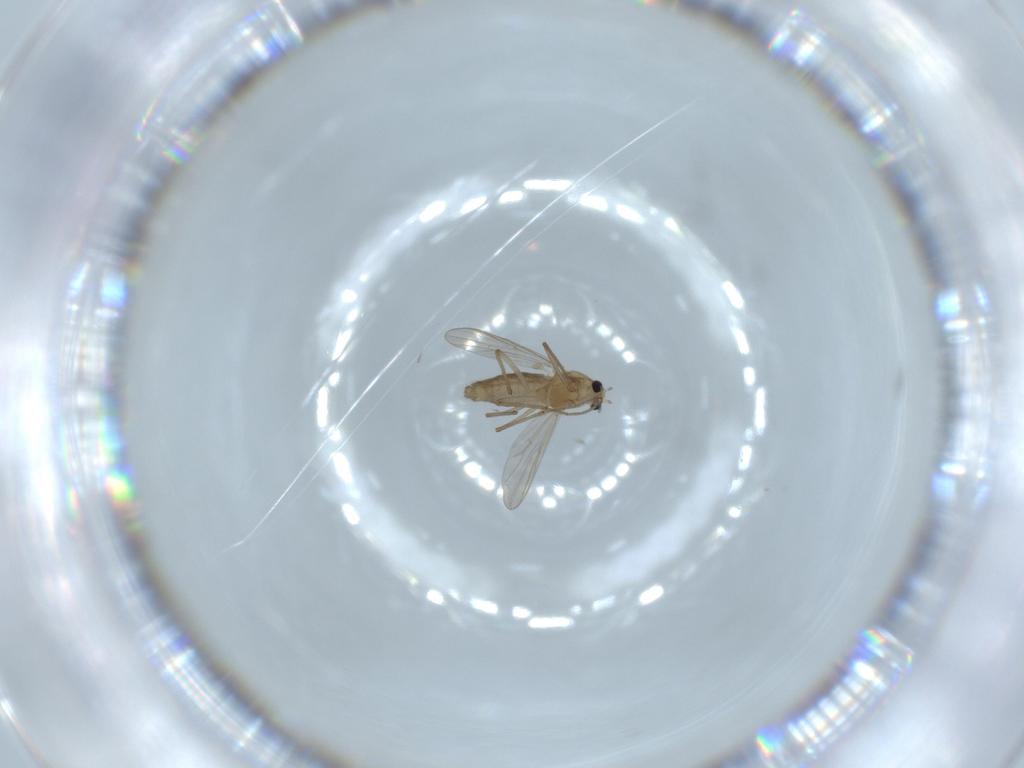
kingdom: Animalia
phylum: Arthropoda
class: Insecta
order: Diptera
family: Chironomidae
